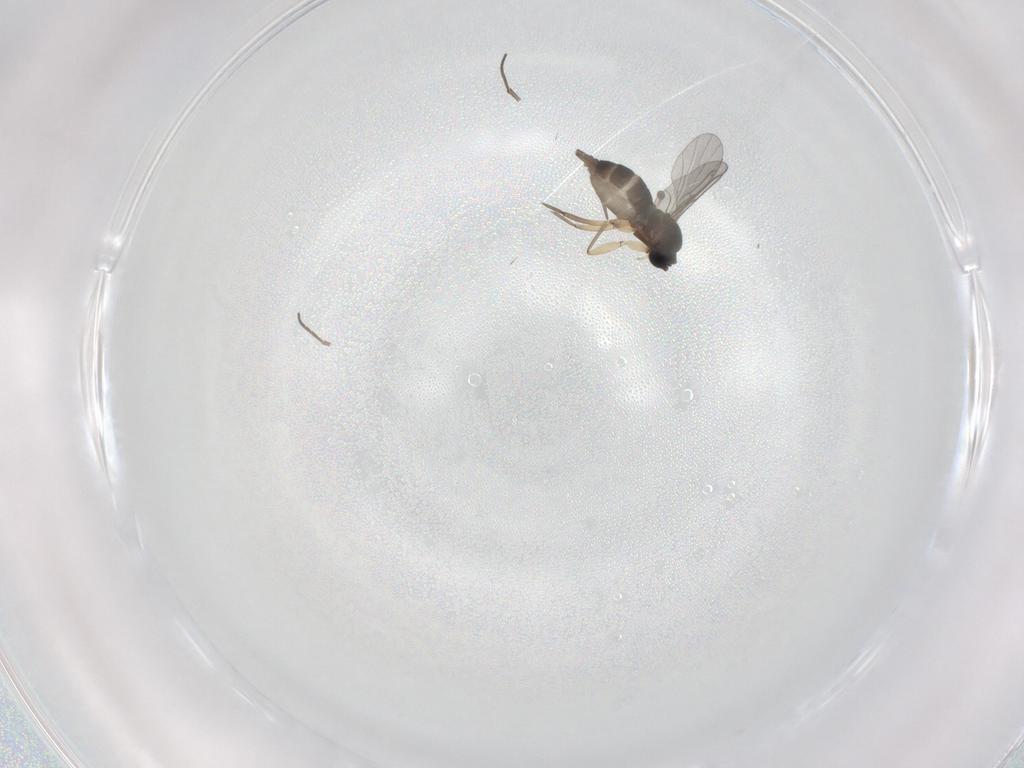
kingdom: Animalia
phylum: Arthropoda
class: Insecta
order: Diptera
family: Sciaridae
